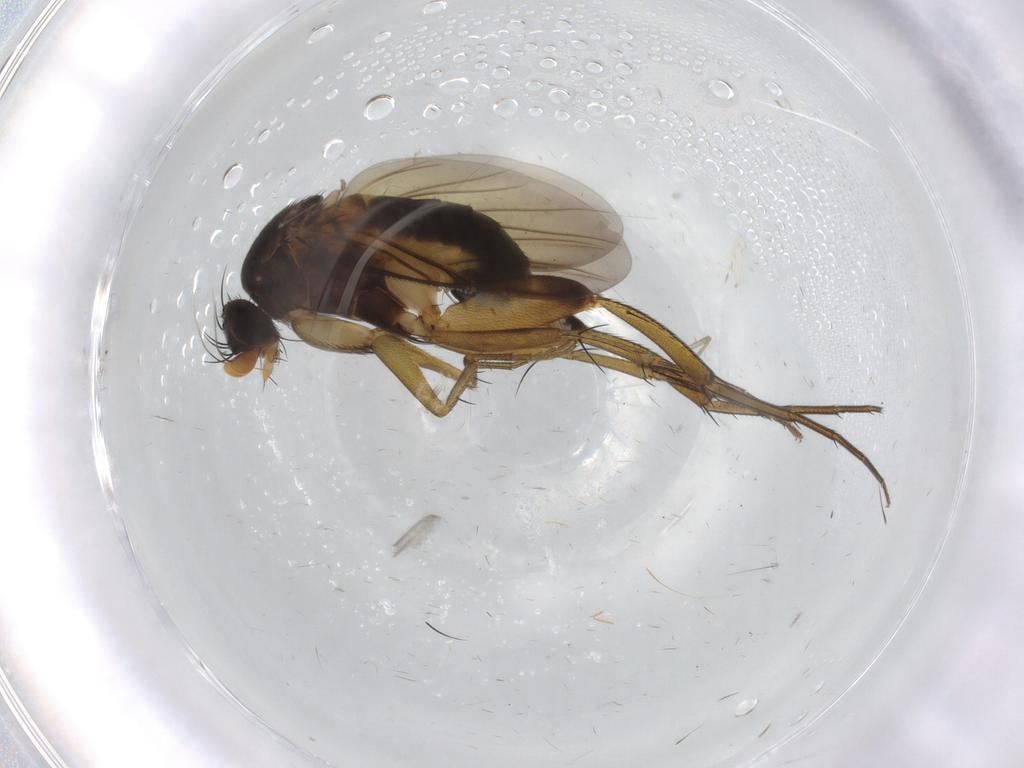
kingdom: Animalia
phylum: Arthropoda
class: Insecta
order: Diptera
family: Phoridae
